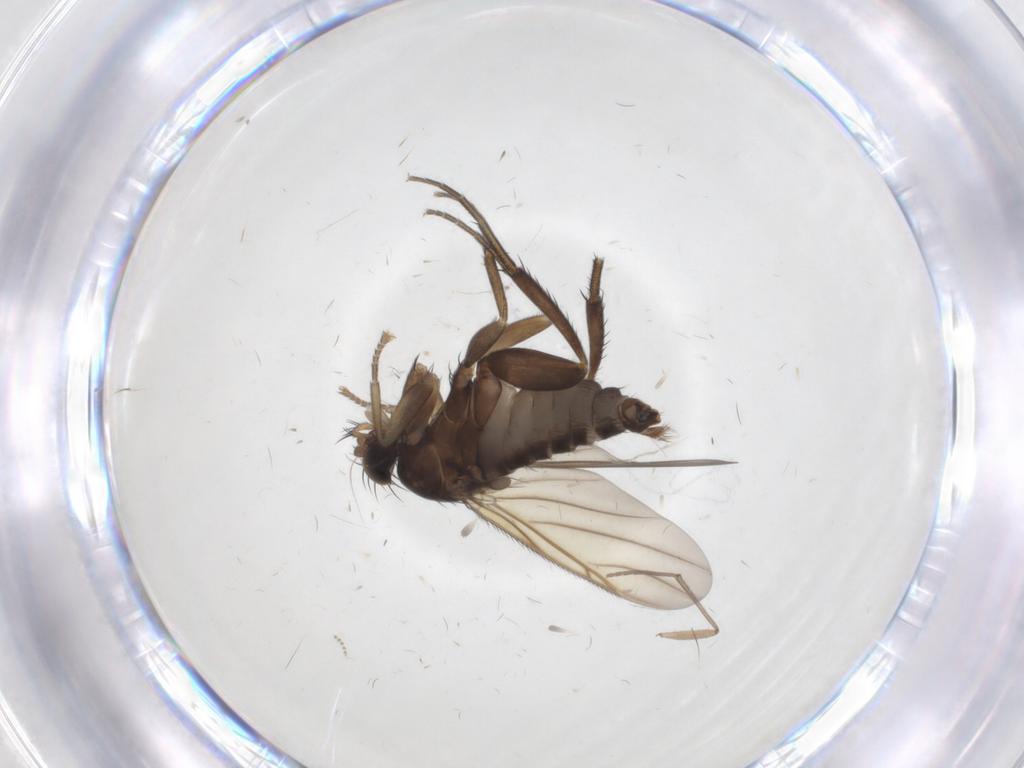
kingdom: Animalia
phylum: Arthropoda
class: Insecta
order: Diptera
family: Phoridae
